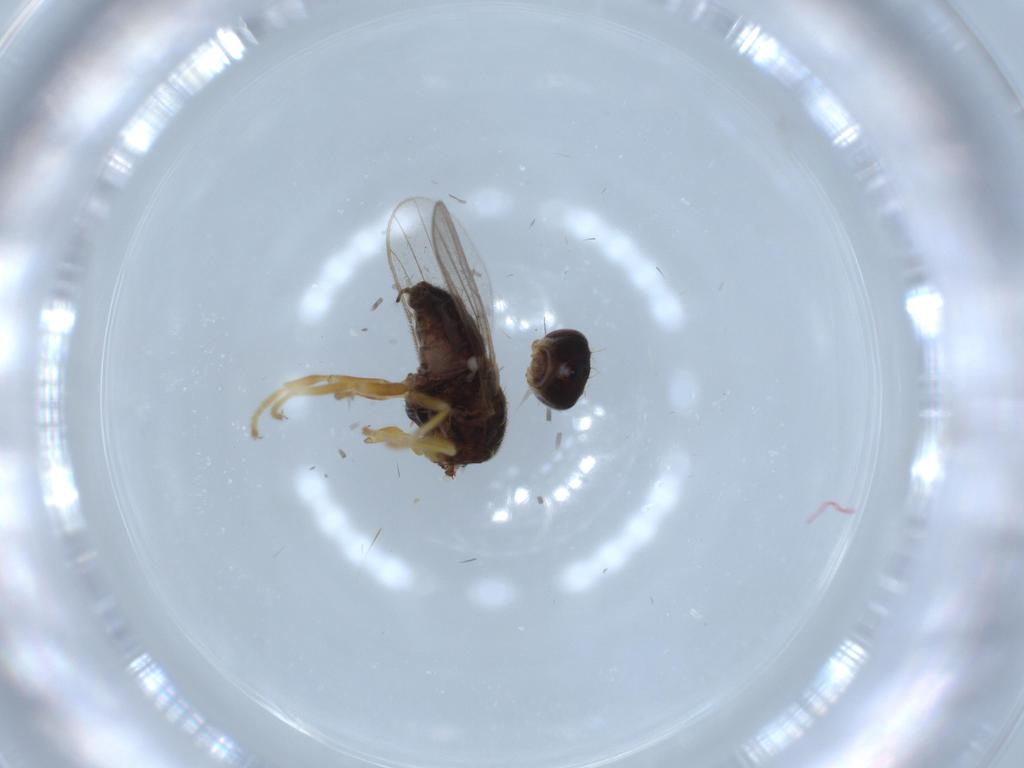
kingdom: Animalia
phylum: Arthropoda
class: Insecta
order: Diptera
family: Chloropidae
